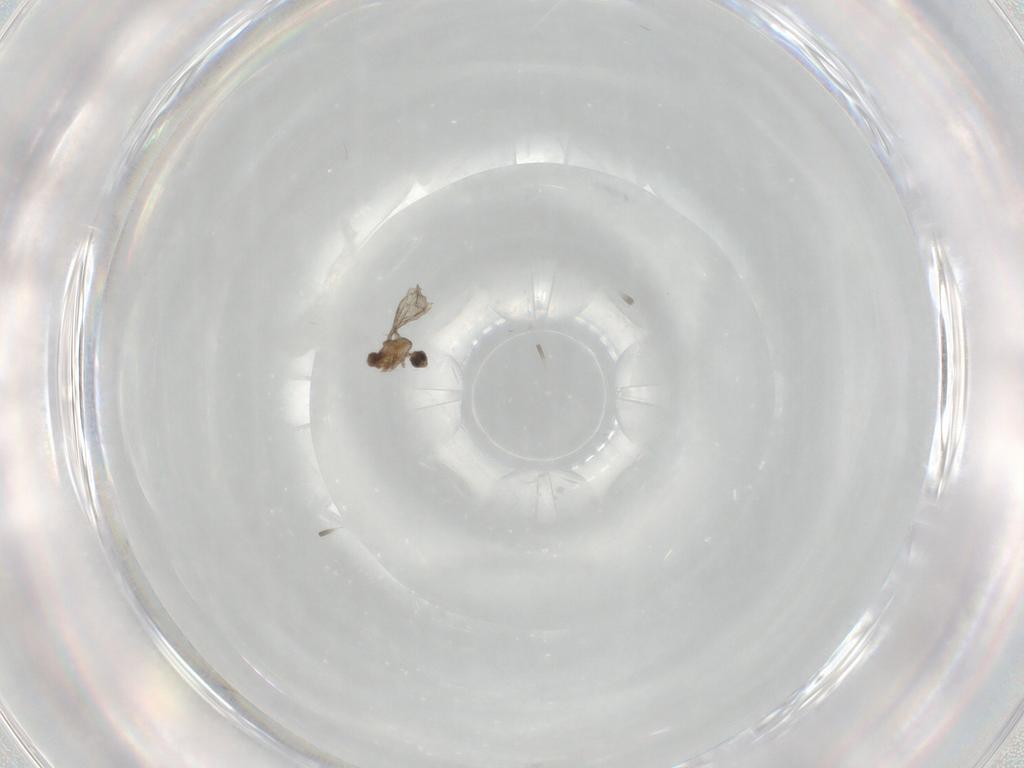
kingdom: Animalia
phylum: Arthropoda
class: Insecta
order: Diptera
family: Cecidomyiidae
